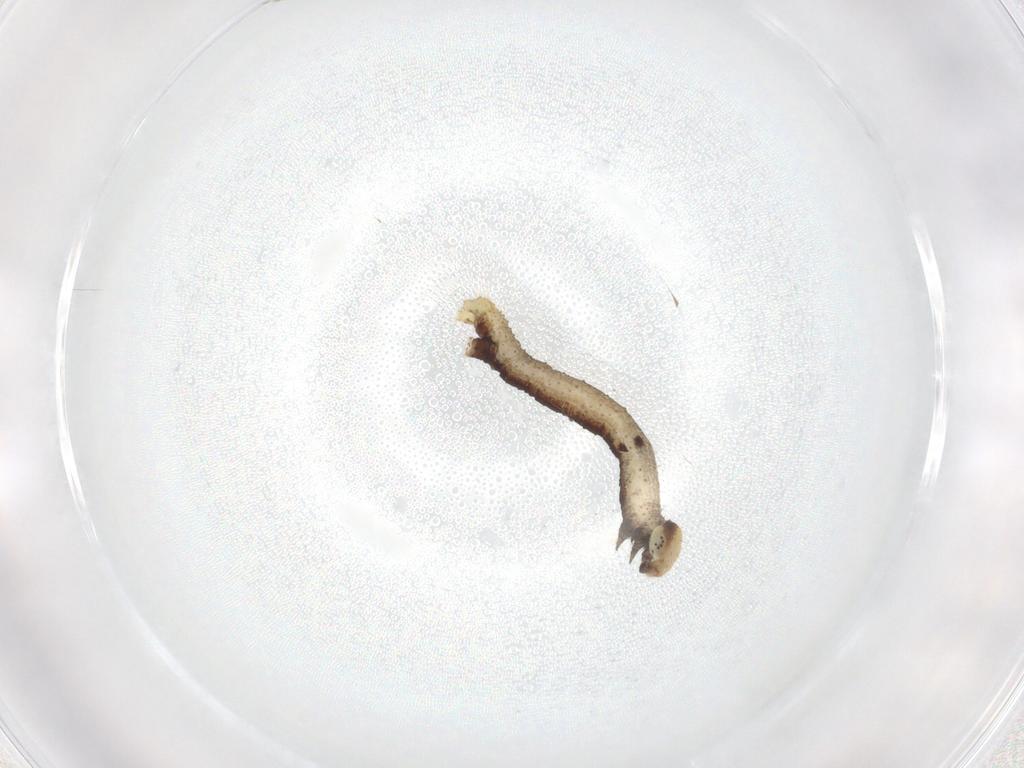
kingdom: Animalia
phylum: Arthropoda
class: Insecta
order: Lepidoptera
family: Geometridae
